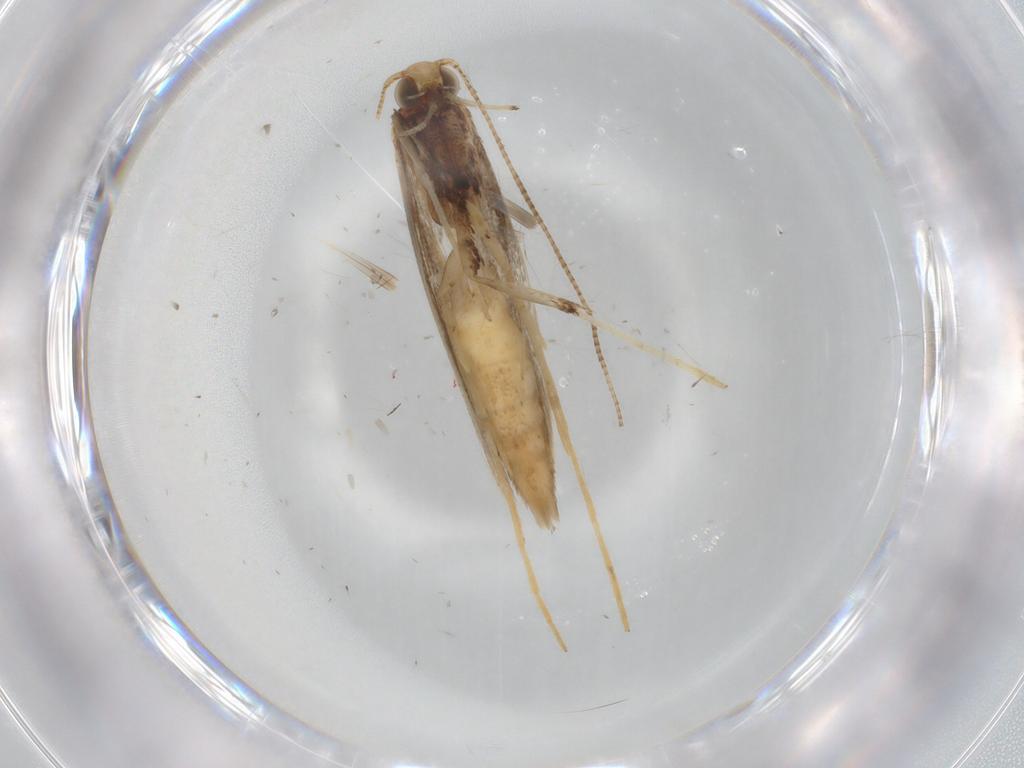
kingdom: Animalia
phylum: Arthropoda
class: Insecta
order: Lepidoptera
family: Gracillariidae
